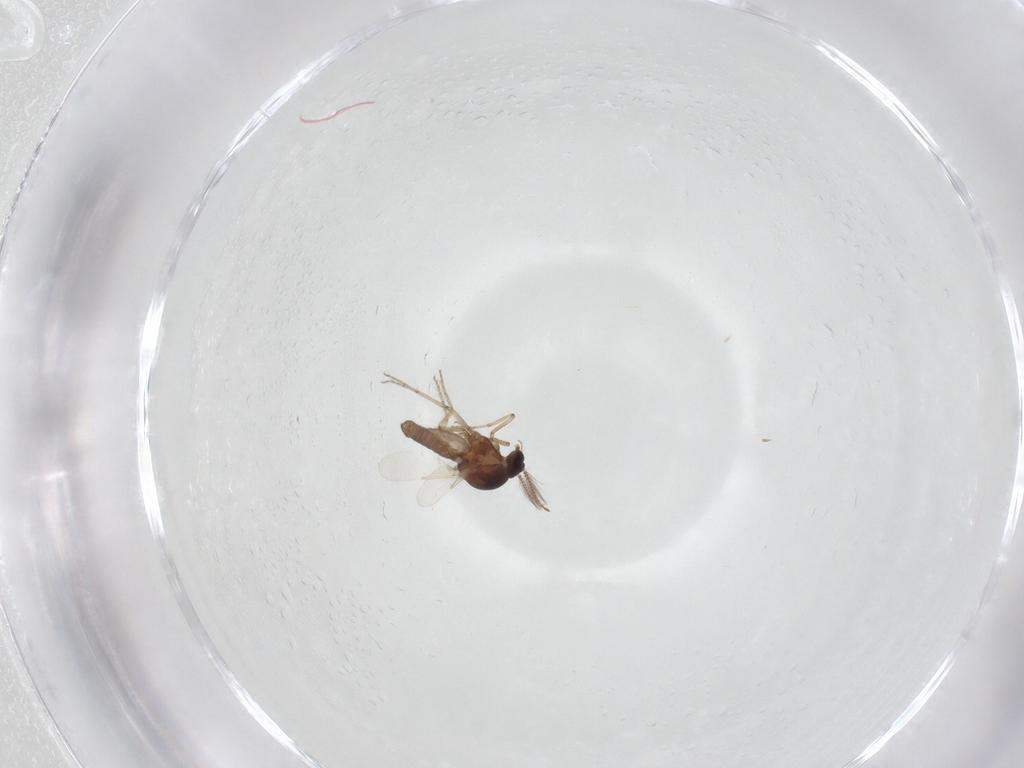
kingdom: Animalia
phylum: Arthropoda
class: Insecta
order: Diptera
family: Ceratopogonidae
